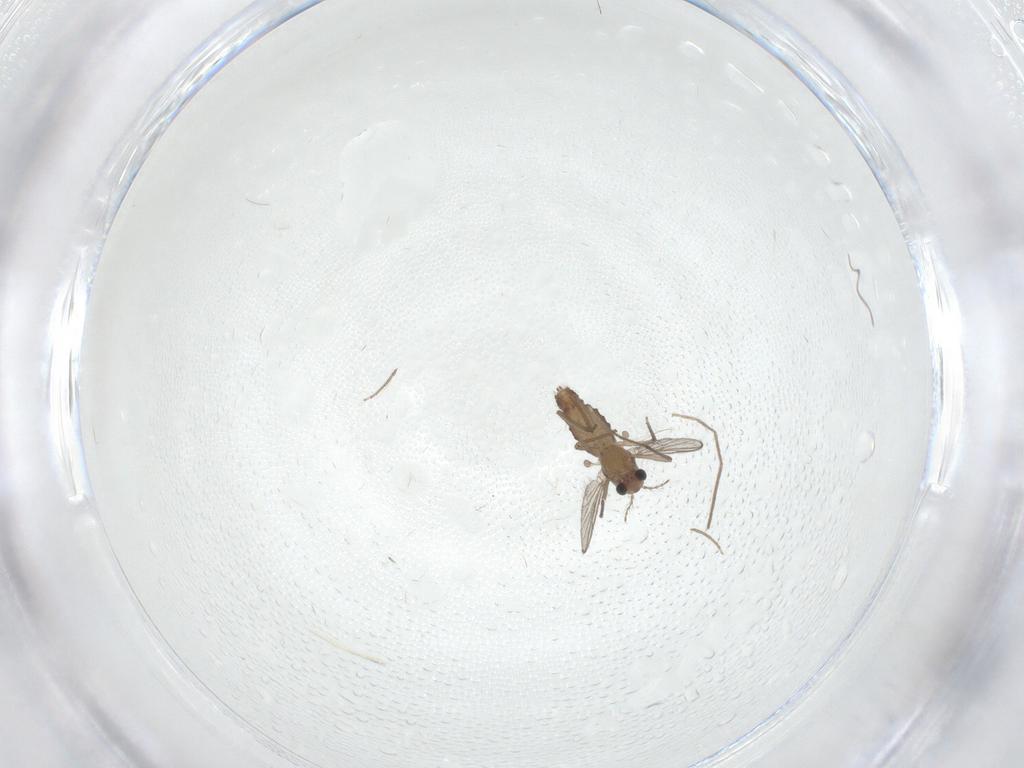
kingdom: Animalia
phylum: Arthropoda
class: Insecta
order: Diptera
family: Chironomidae
